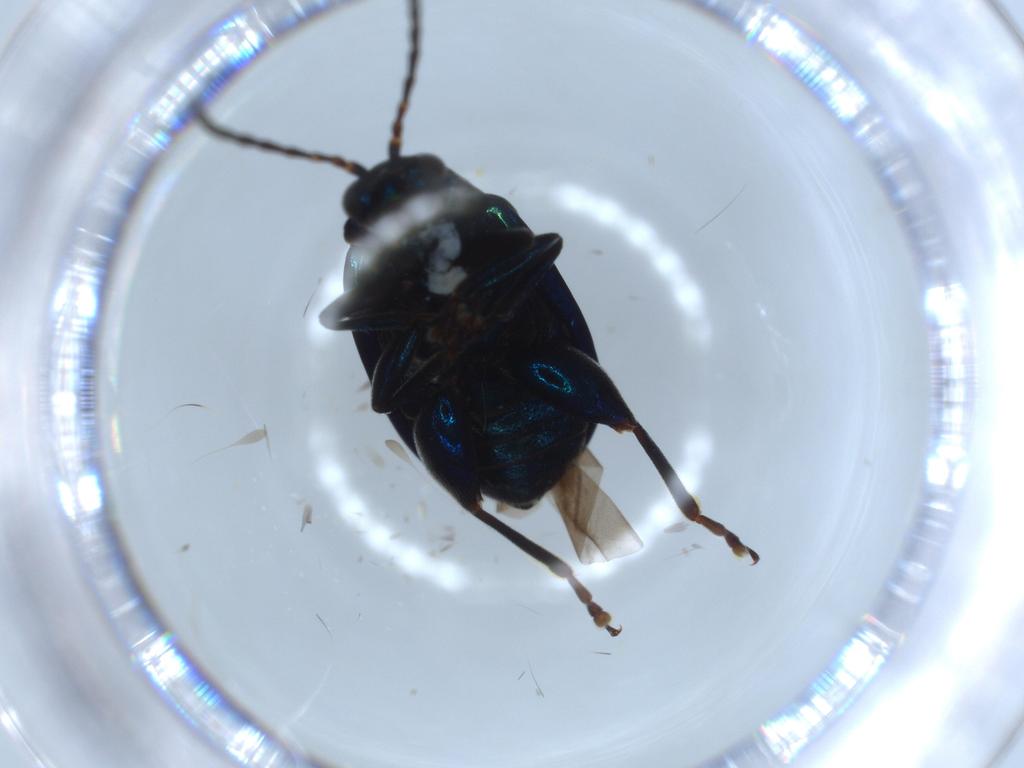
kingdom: Animalia
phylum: Arthropoda
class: Insecta
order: Coleoptera
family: Chrysomelidae
